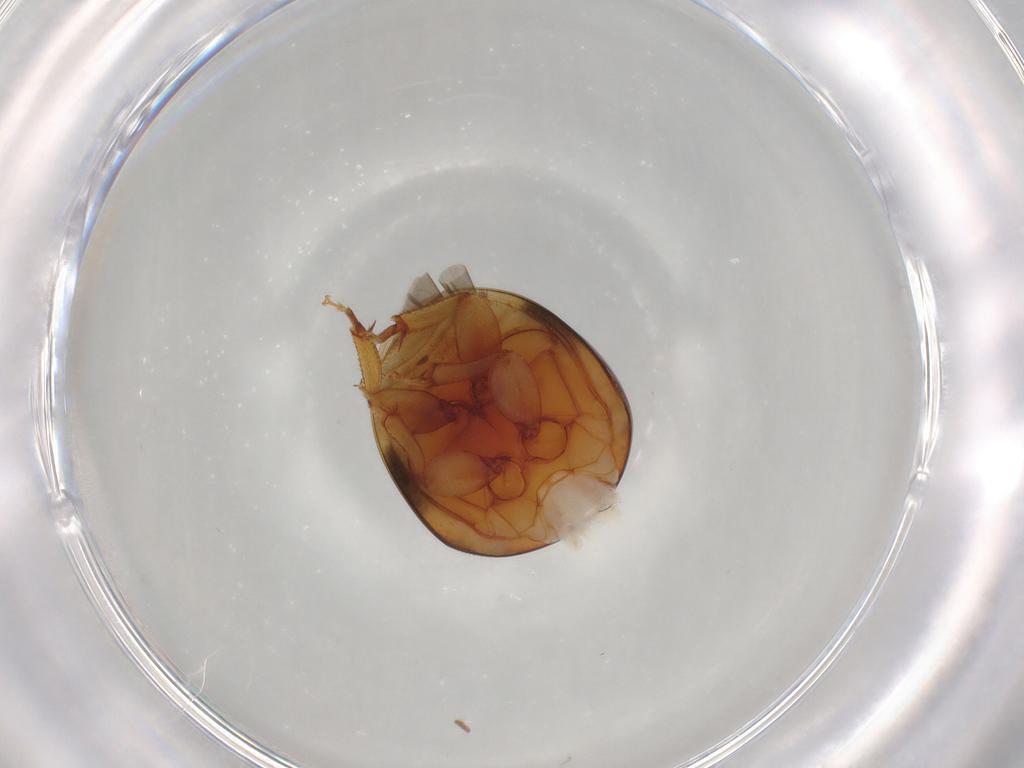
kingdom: Animalia
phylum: Arthropoda
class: Insecta
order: Coleoptera
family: Phalacridae
